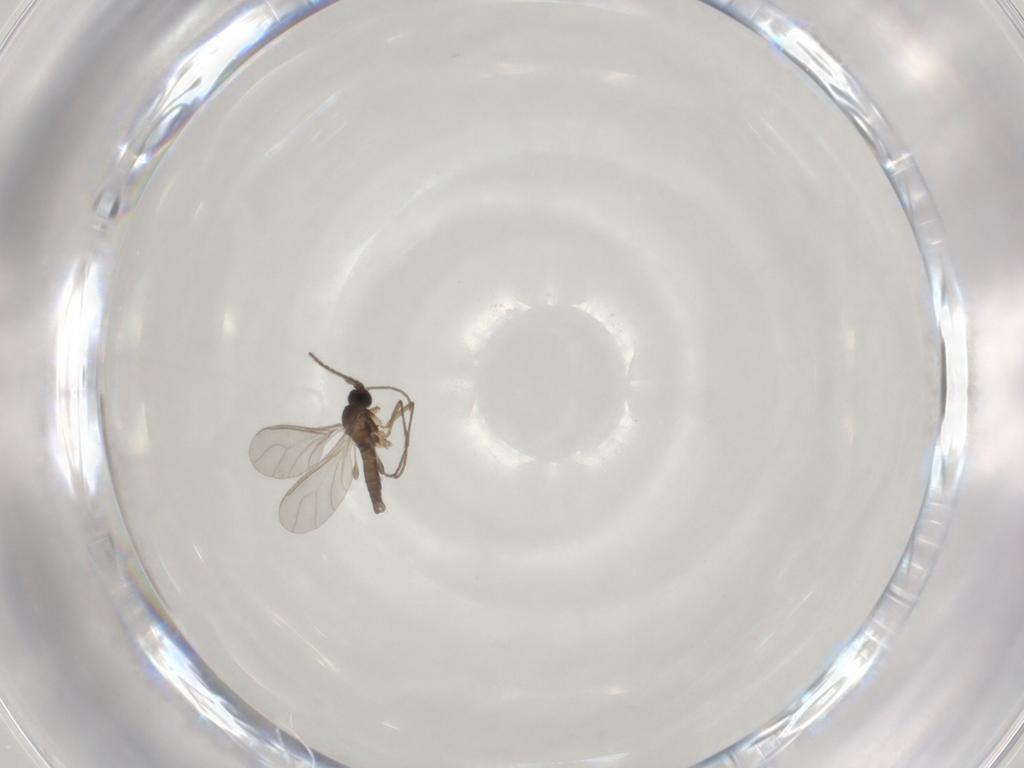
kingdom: Animalia
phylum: Arthropoda
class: Insecta
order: Diptera
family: Sciaridae
